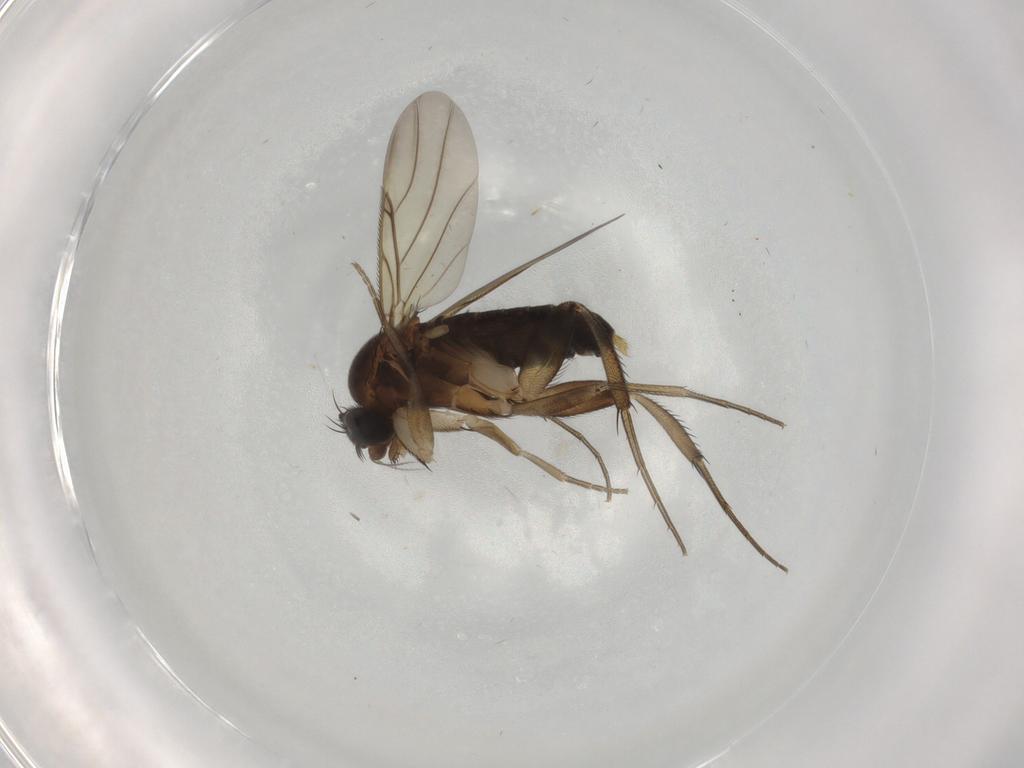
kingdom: Animalia
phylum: Arthropoda
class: Insecta
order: Diptera
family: Phoridae
